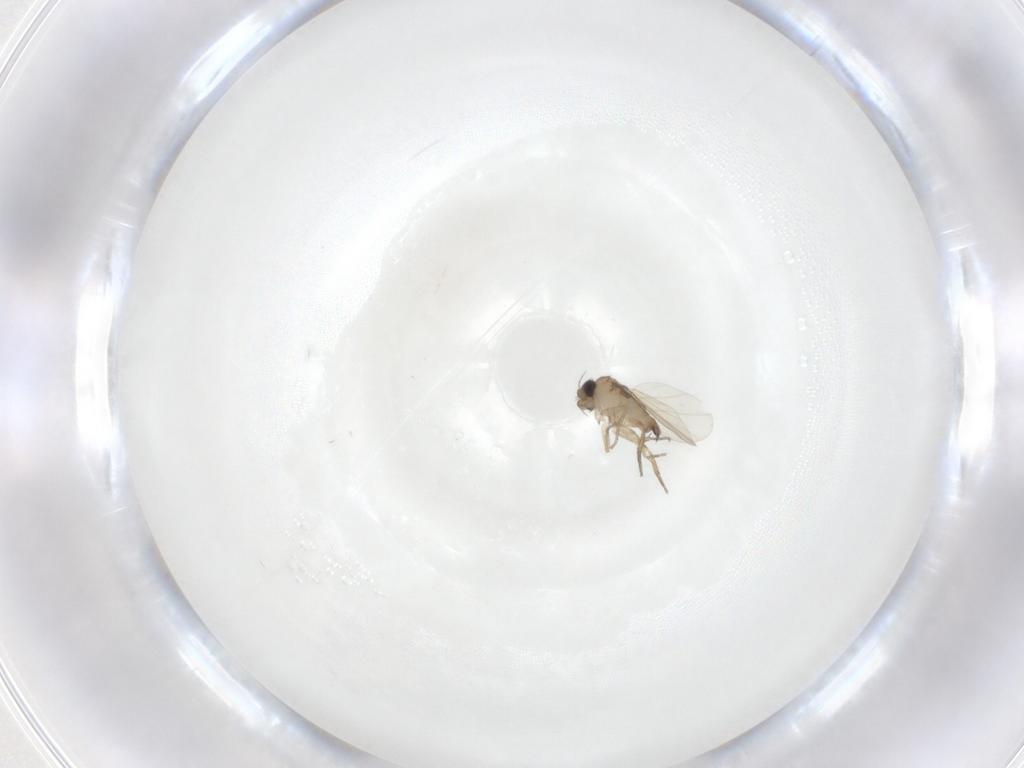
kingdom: Animalia
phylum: Arthropoda
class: Insecta
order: Diptera
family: Phoridae
